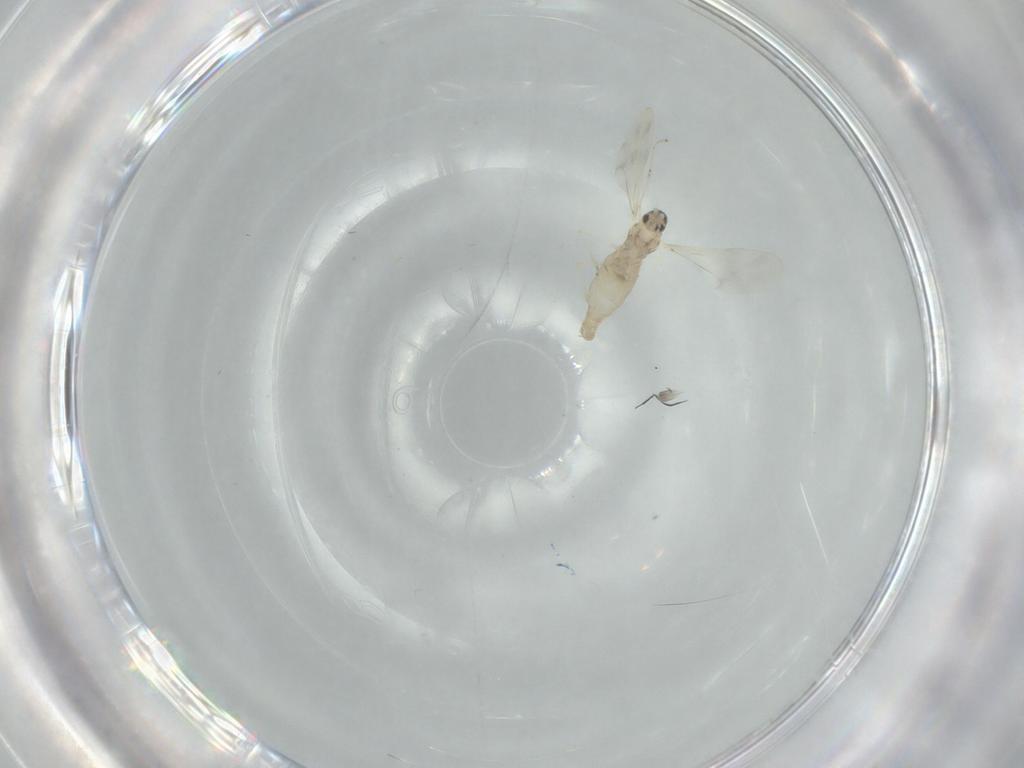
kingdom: Animalia
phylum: Arthropoda
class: Insecta
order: Diptera
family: Cecidomyiidae
